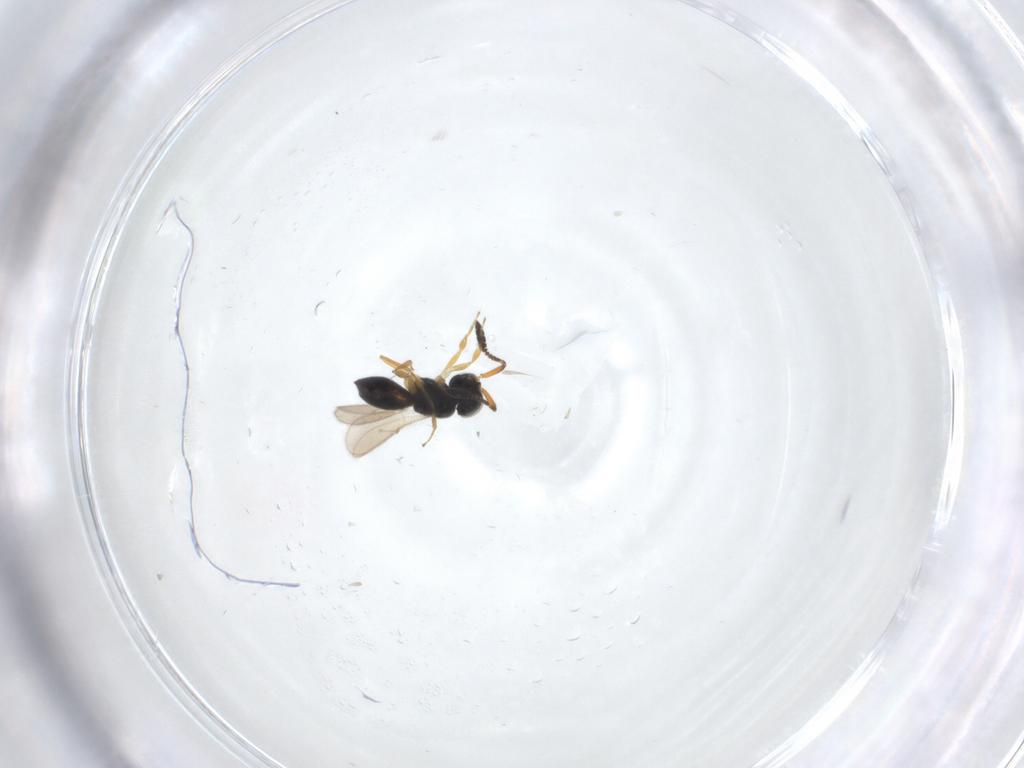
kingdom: Animalia
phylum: Arthropoda
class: Insecta
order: Hymenoptera
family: Scelionidae
